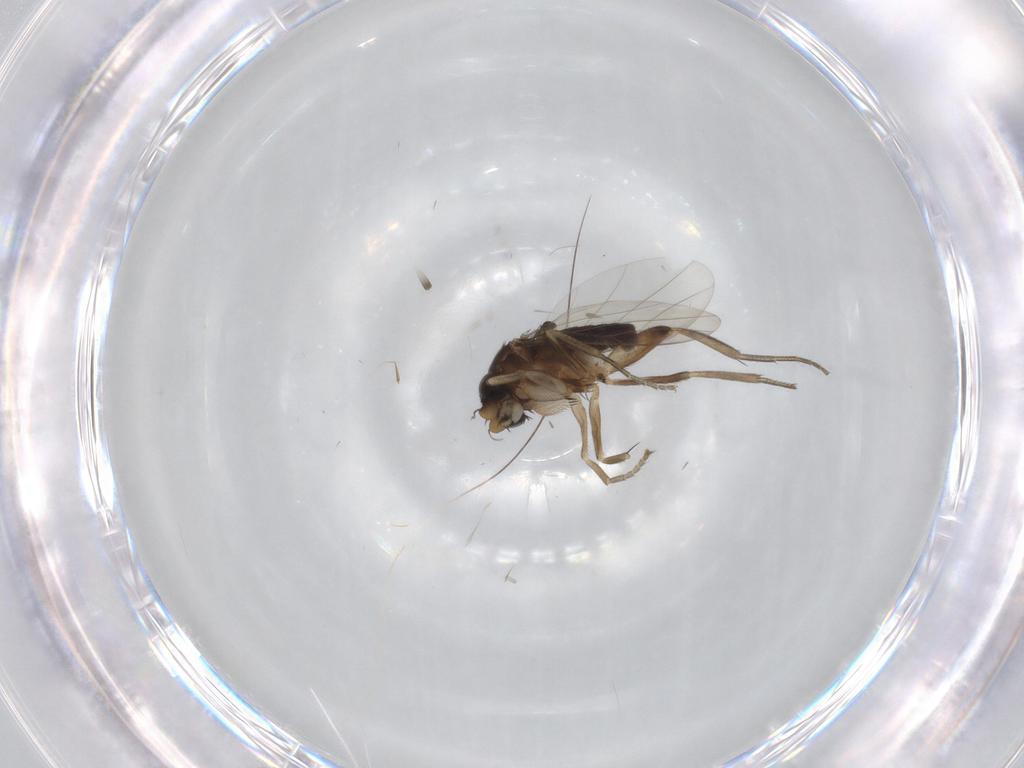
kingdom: Animalia
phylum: Arthropoda
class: Insecta
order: Diptera
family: Phoridae
